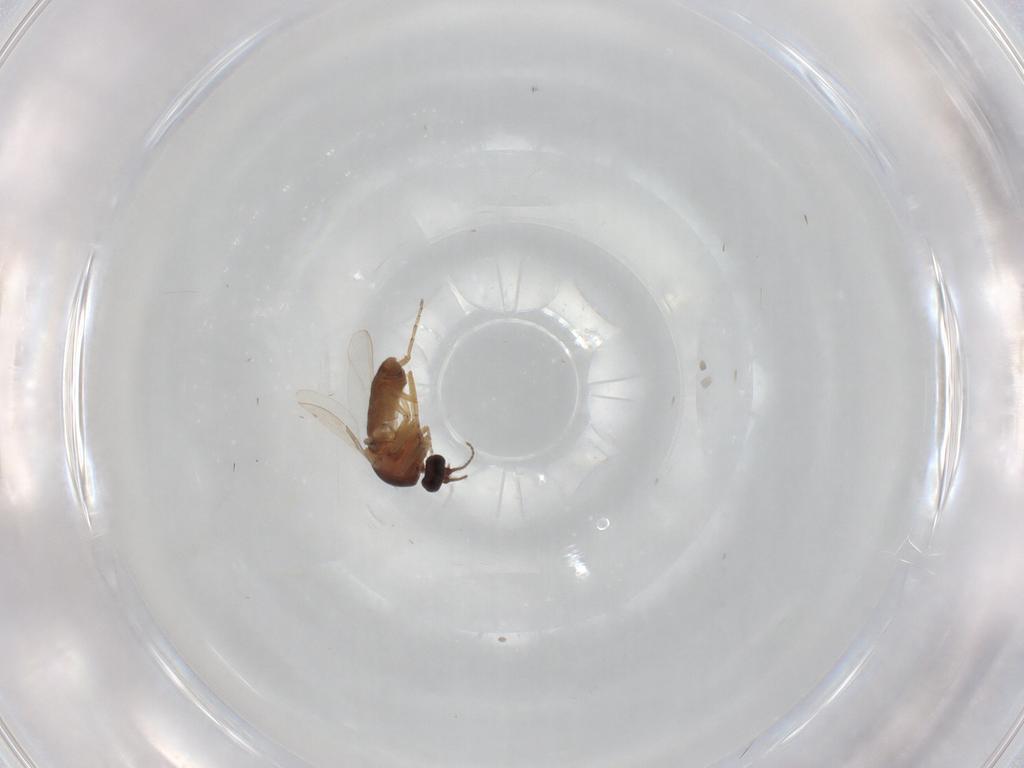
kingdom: Animalia
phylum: Arthropoda
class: Insecta
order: Diptera
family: Ceratopogonidae
